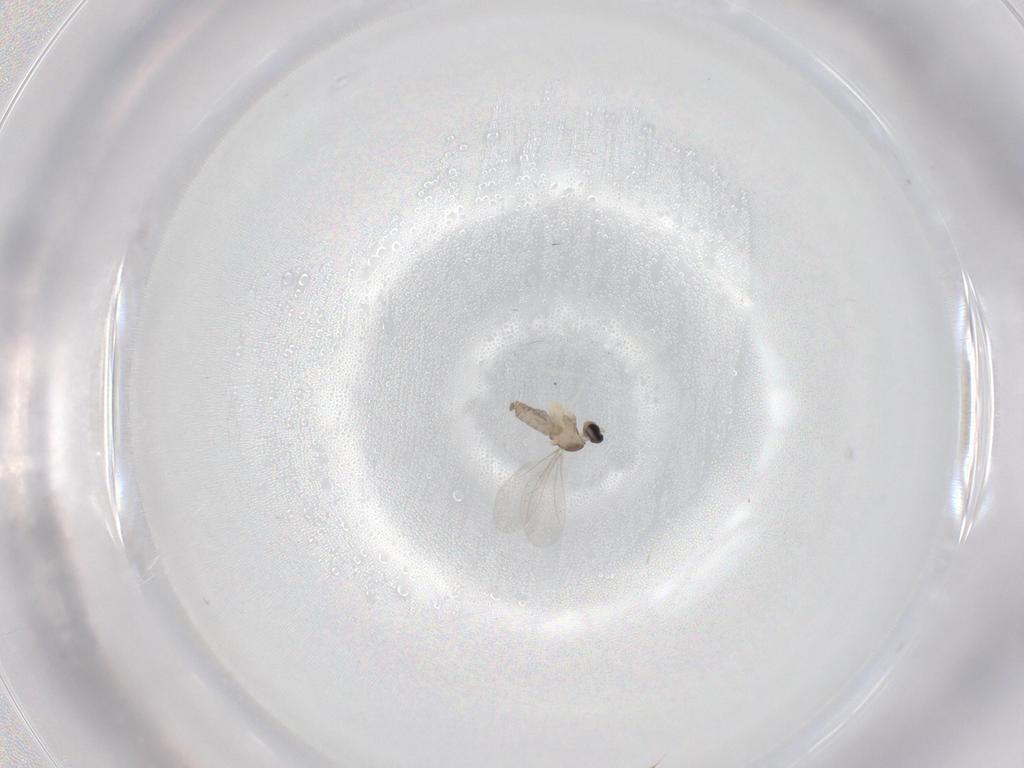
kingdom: Animalia
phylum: Arthropoda
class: Insecta
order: Diptera
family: Cecidomyiidae
